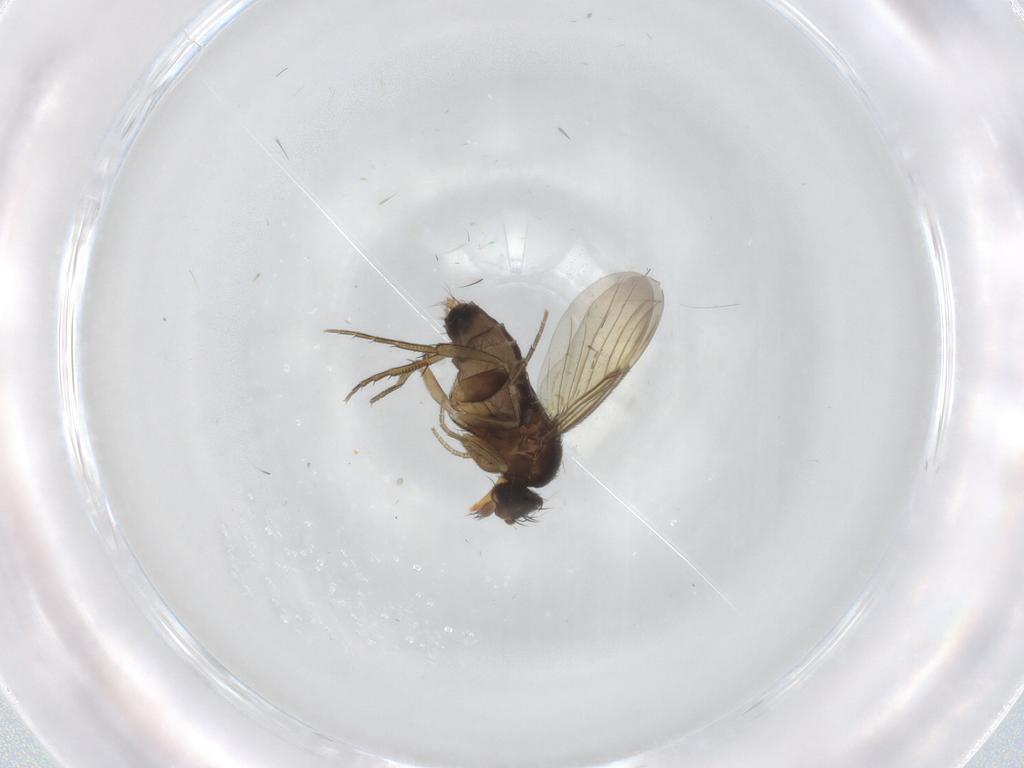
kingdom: Animalia
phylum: Arthropoda
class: Insecta
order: Diptera
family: Phoridae
